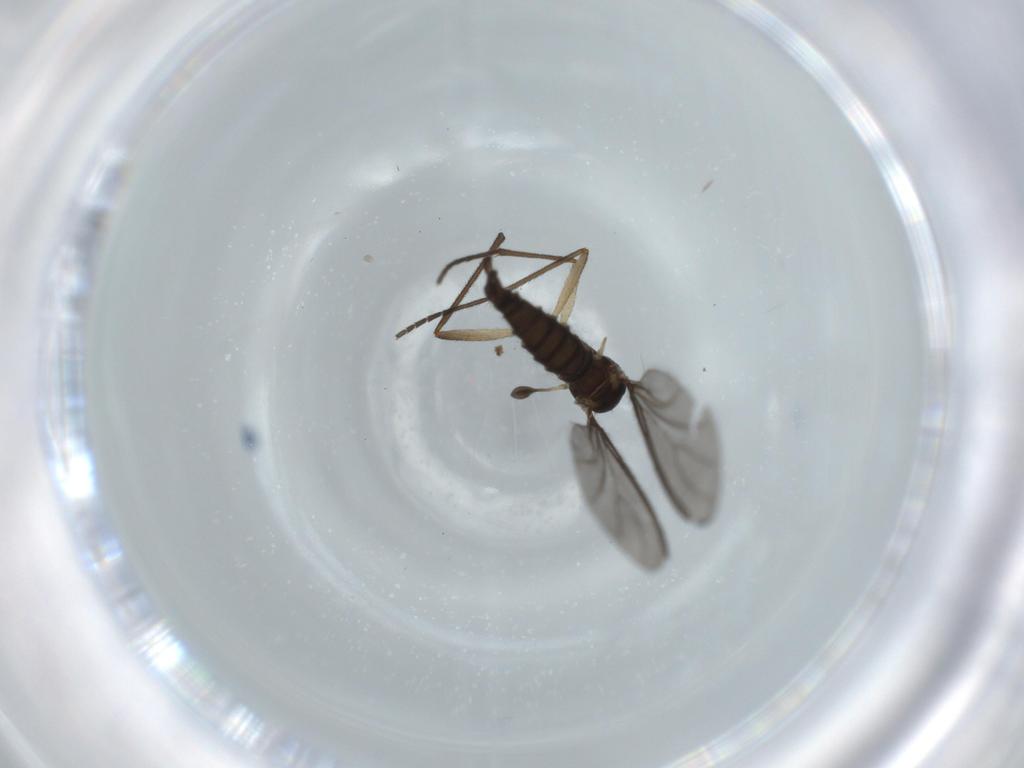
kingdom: Animalia
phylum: Arthropoda
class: Insecta
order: Diptera
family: Sciaridae
